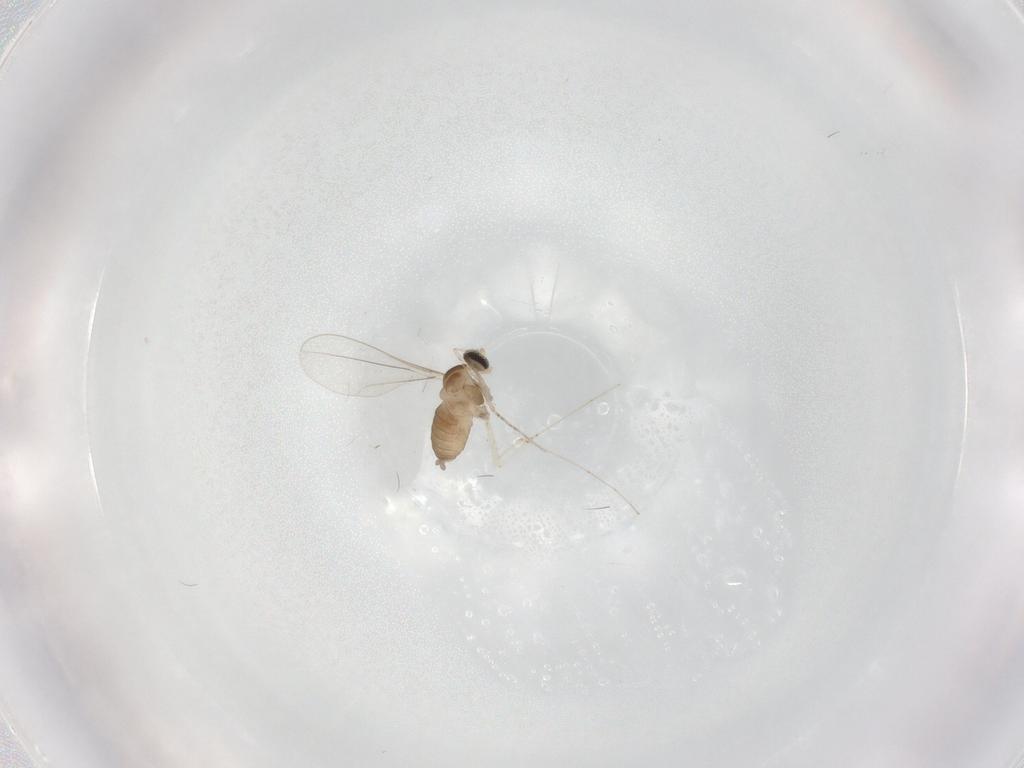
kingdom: Animalia
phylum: Arthropoda
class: Insecta
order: Diptera
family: Cecidomyiidae
